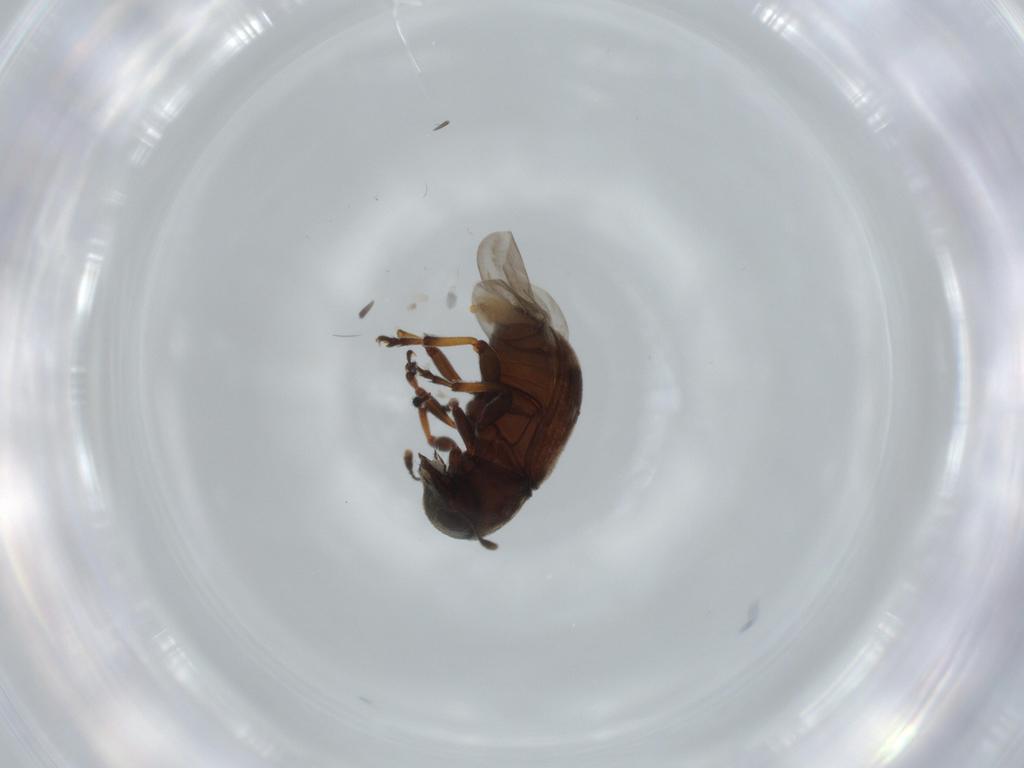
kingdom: Animalia
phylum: Arthropoda
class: Insecta
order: Coleoptera
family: Anthribidae
